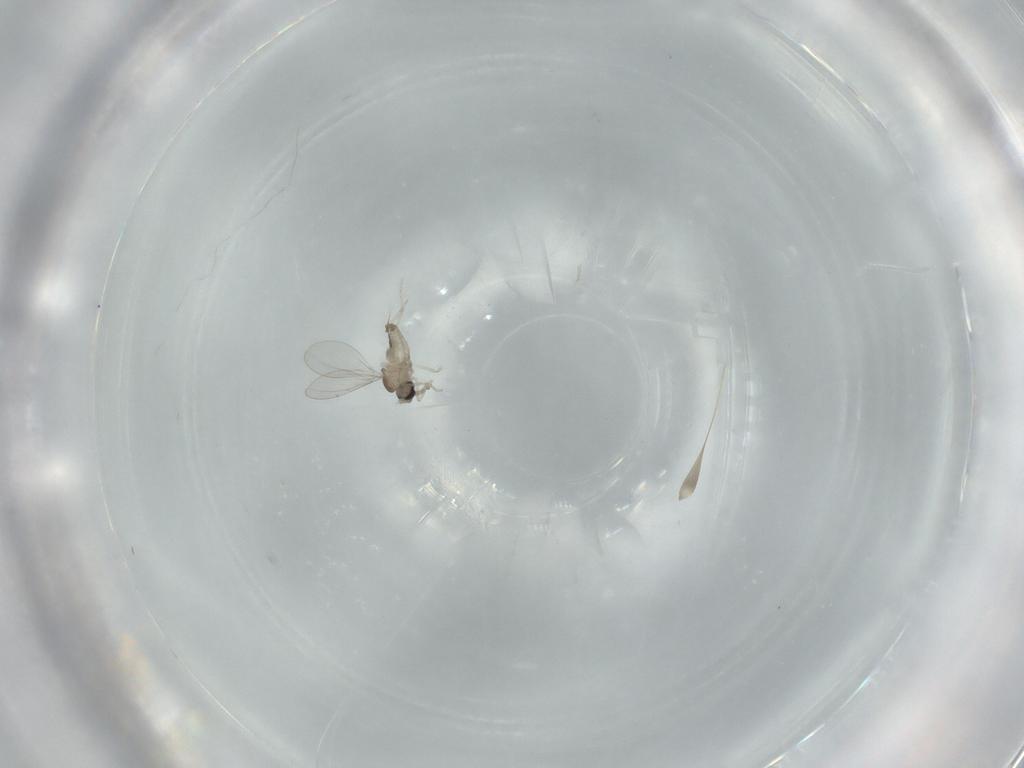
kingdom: Animalia
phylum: Arthropoda
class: Insecta
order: Diptera
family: Cecidomyiidae
